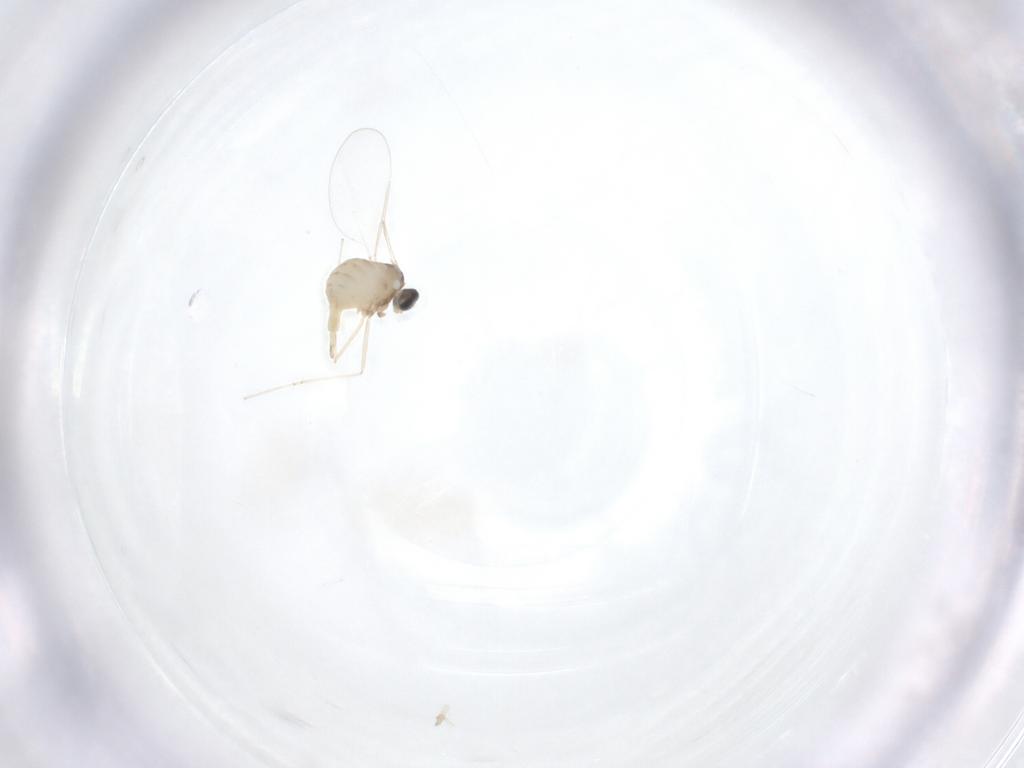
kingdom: Animalia
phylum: Arthropoda
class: Insecta
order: Diptera
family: Cecidomyiidae
